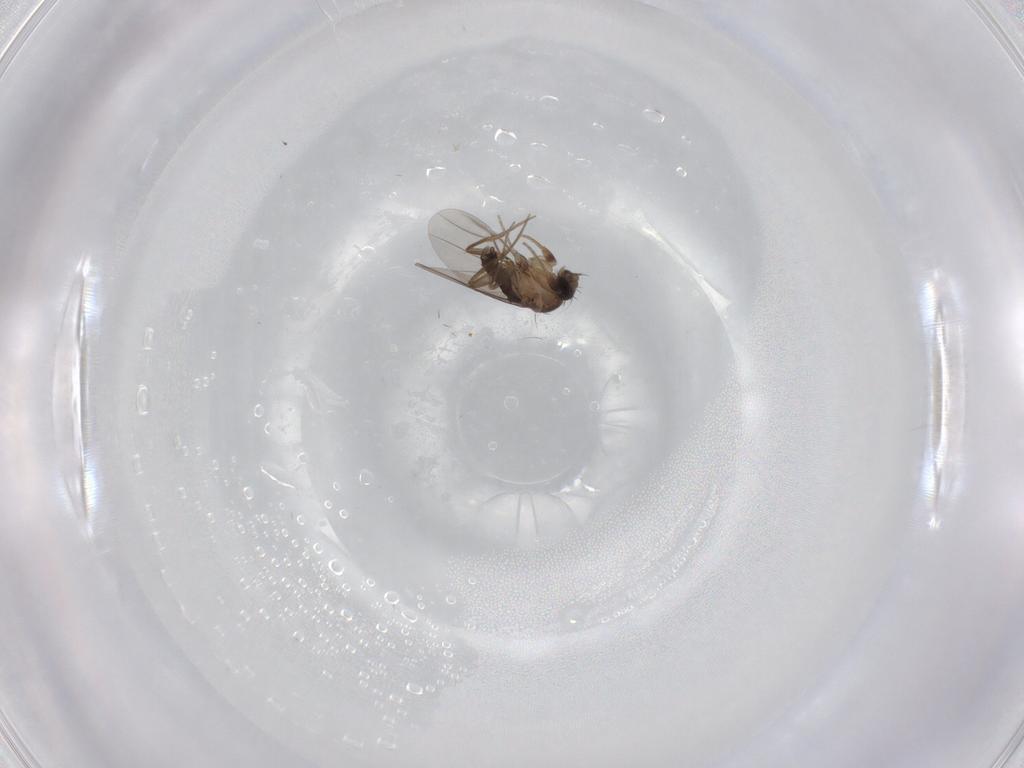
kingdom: Animalia
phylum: Arthropoda
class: Insecta
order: Diptera
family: Phoridae
